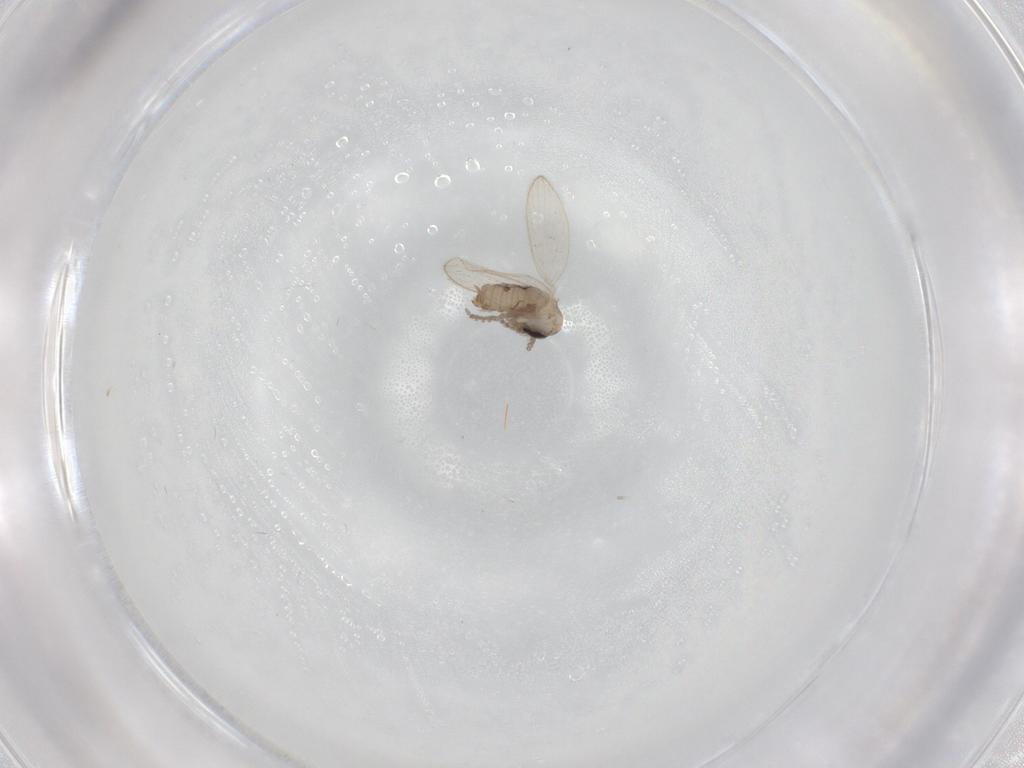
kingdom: Animalia
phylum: Arthropoda
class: Insecta
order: Diptera
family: Psychodidae
